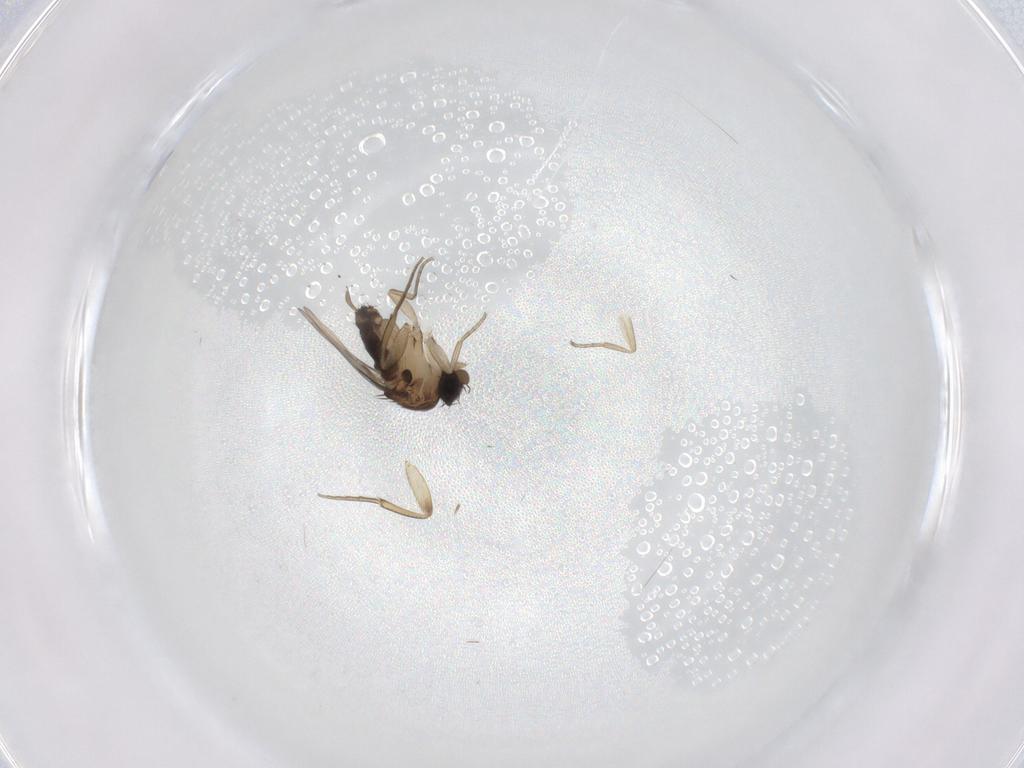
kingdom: Animalia
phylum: Arthropoda
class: Insecta
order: Diptera
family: Phoridae
